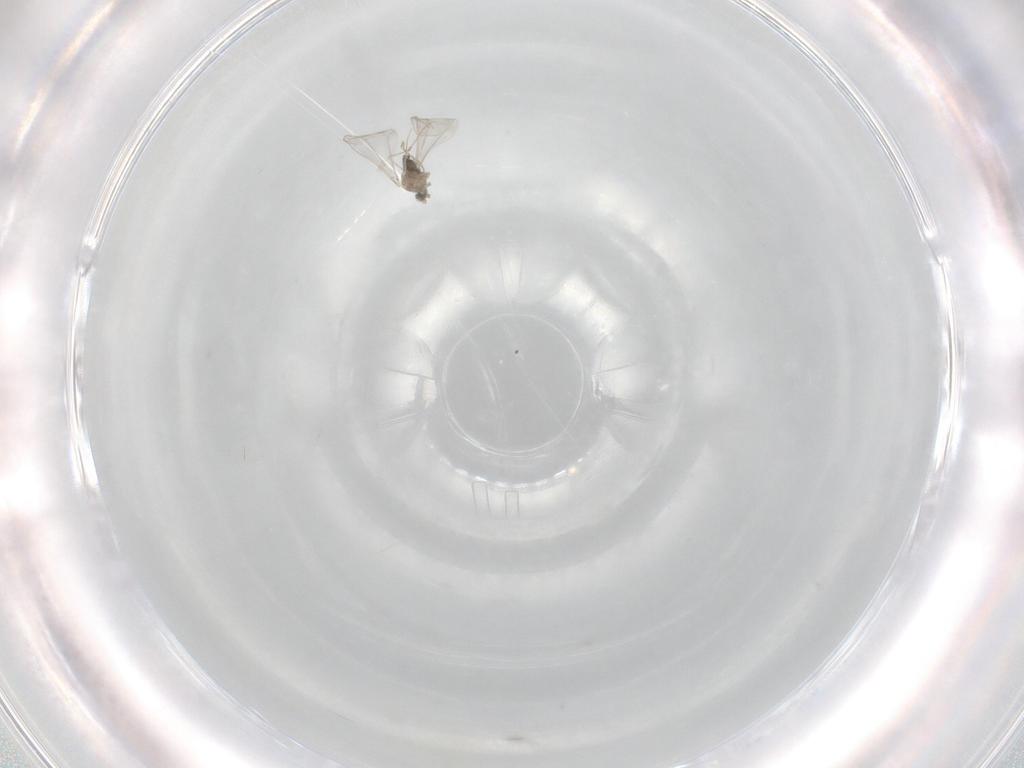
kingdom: Animalia
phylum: Arthropoda
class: Insecta
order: Diptera
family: Cecidomyiidae
